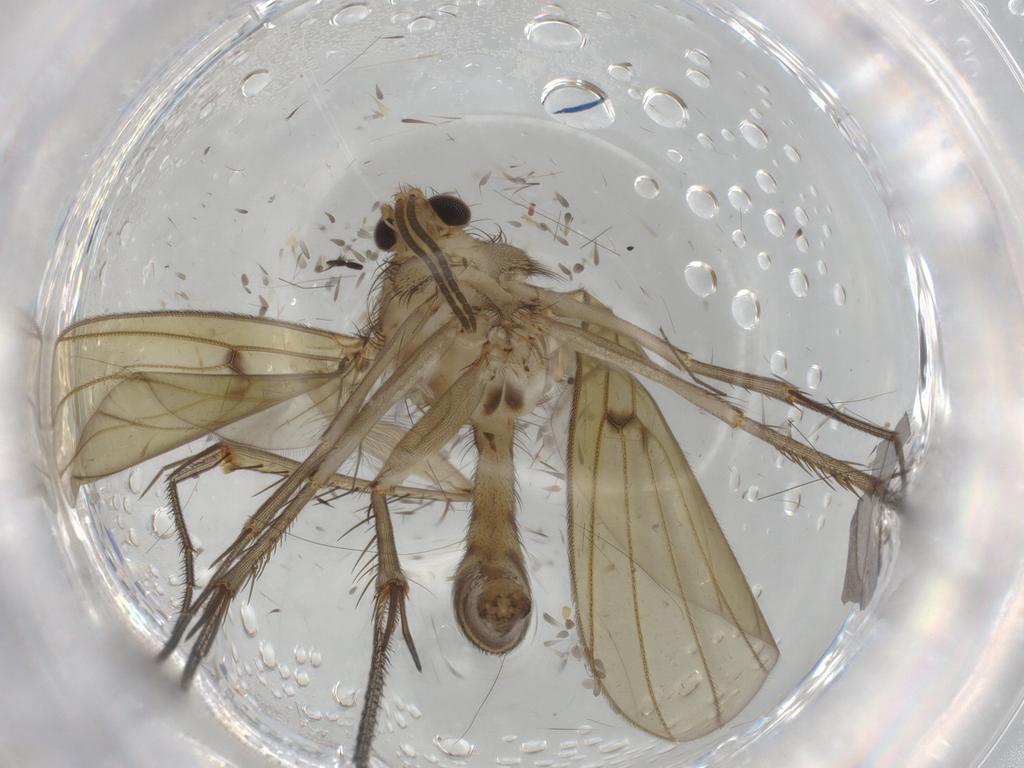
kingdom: Animalia
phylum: Arthropoda
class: Insecta
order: Diptera
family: Mycetophilidae
